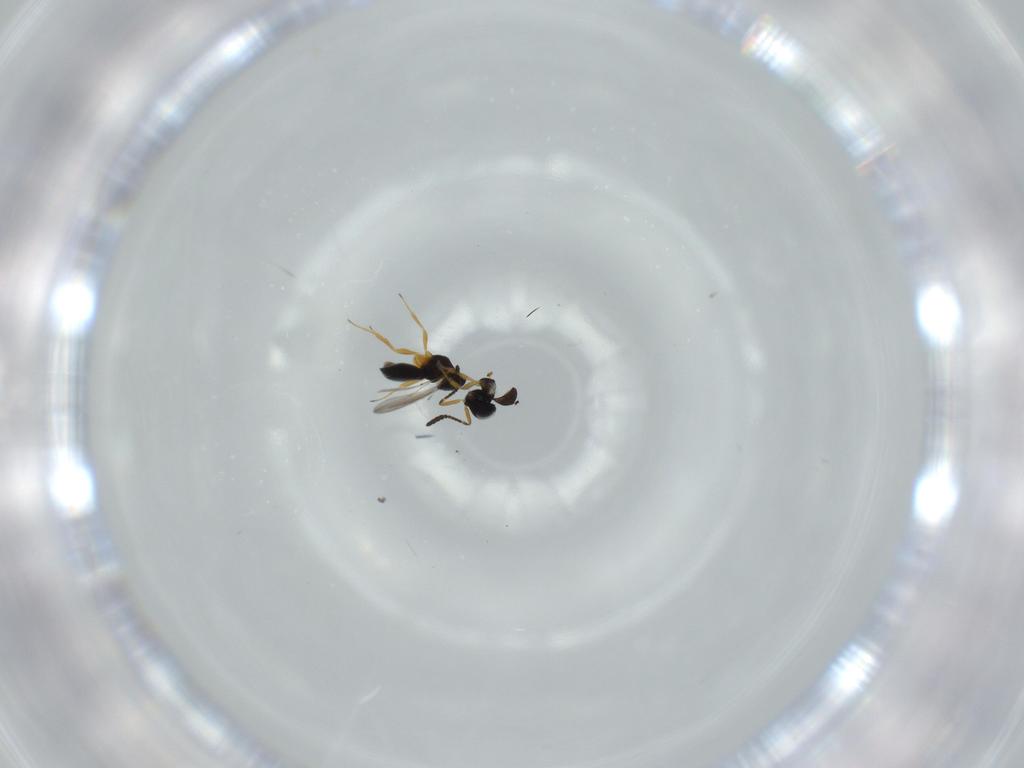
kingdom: Animalia
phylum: Arthropoda
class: Insecta
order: Hymenoptera
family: Scelionidae
